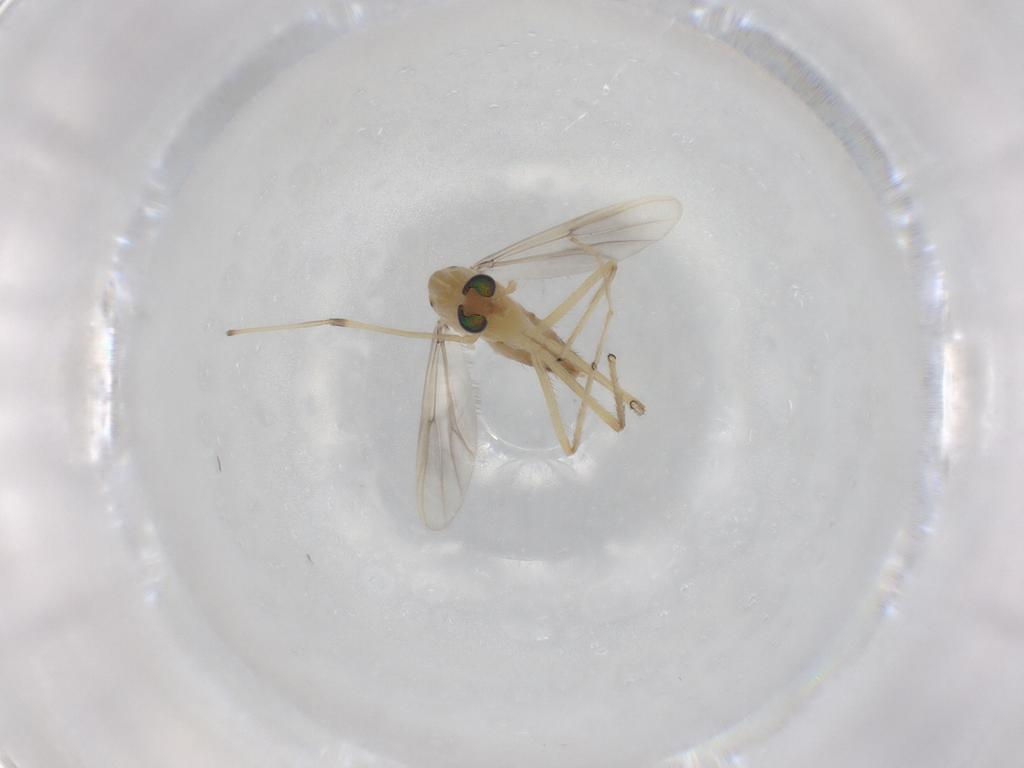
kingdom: Animalia
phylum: Arthropoda
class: Insecta
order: Diptera
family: Chironomidae
